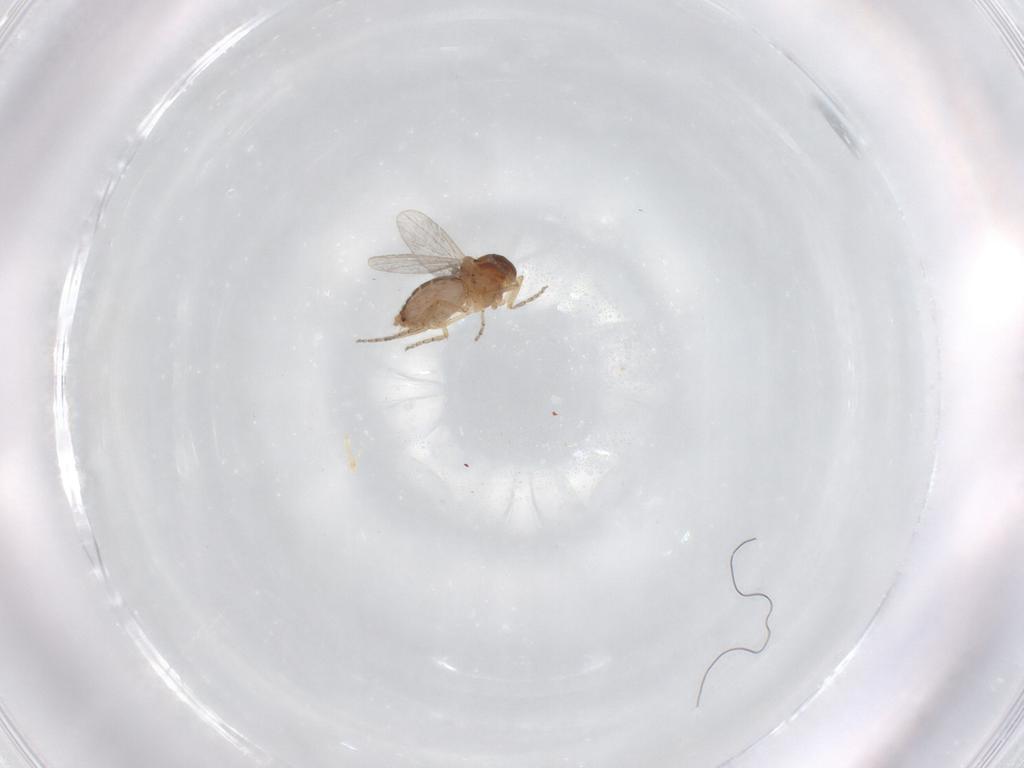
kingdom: Animalia
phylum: Arthropoda
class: Insecta
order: Diptera
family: Ceratopogonidae
